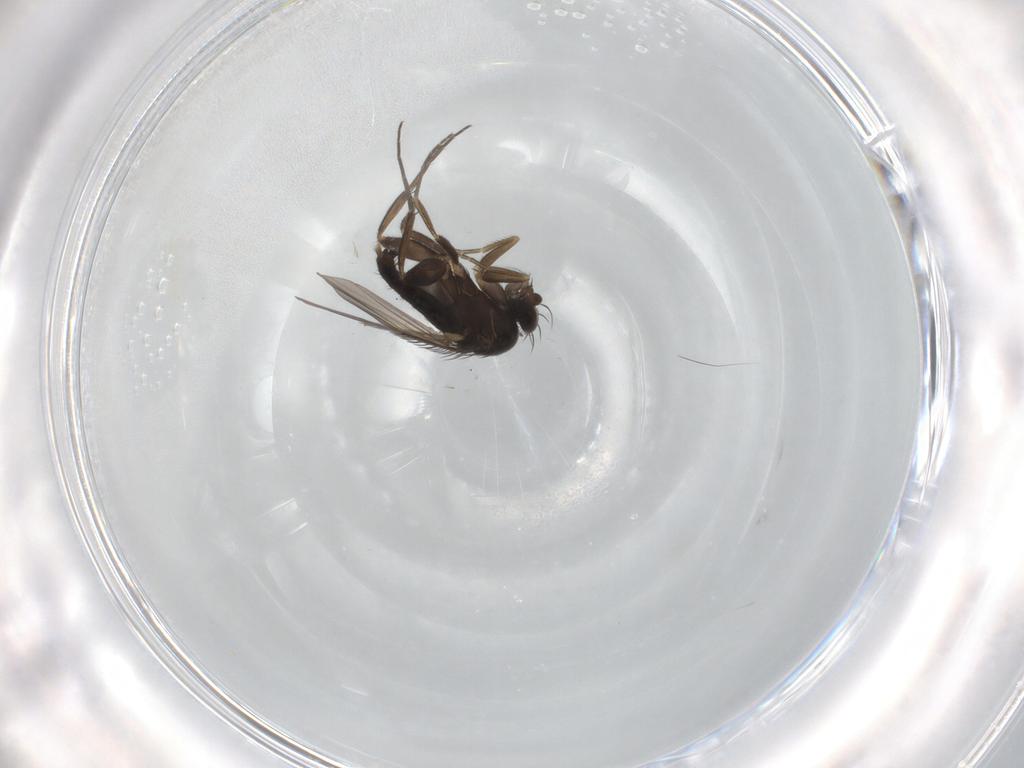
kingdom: Animalia
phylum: Arthropoda
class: Insecta
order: Diptera
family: Phoridae
